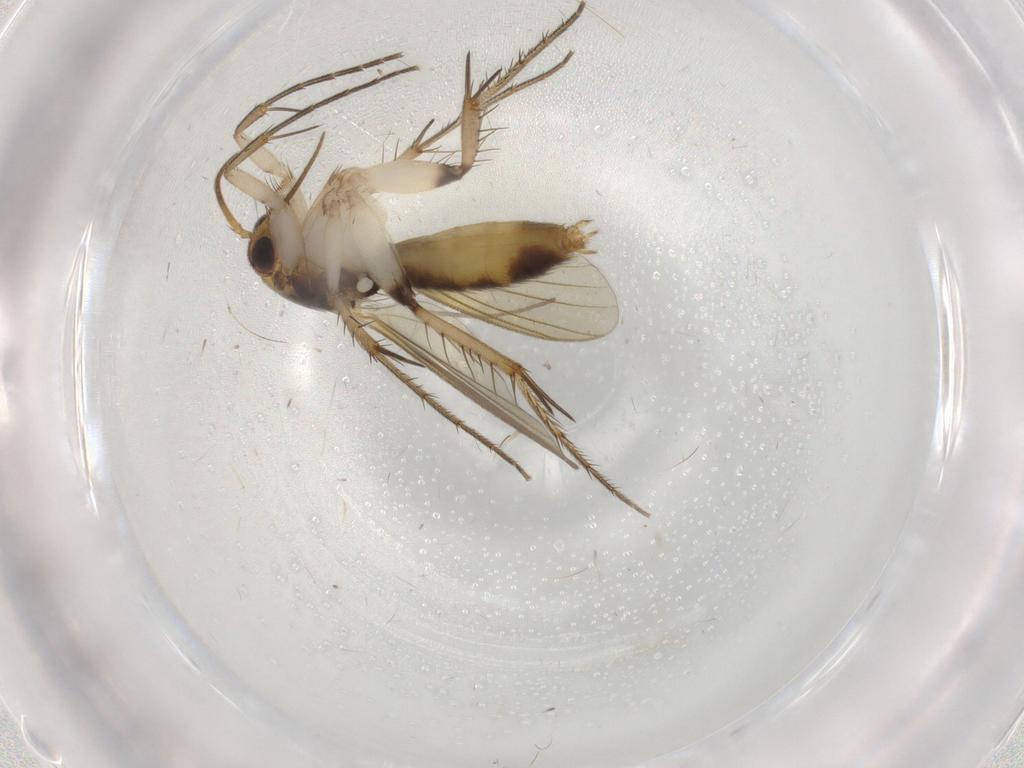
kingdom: Animalia
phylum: Arthropoda
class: Insecta
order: Diptera
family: Mycetophilidae
